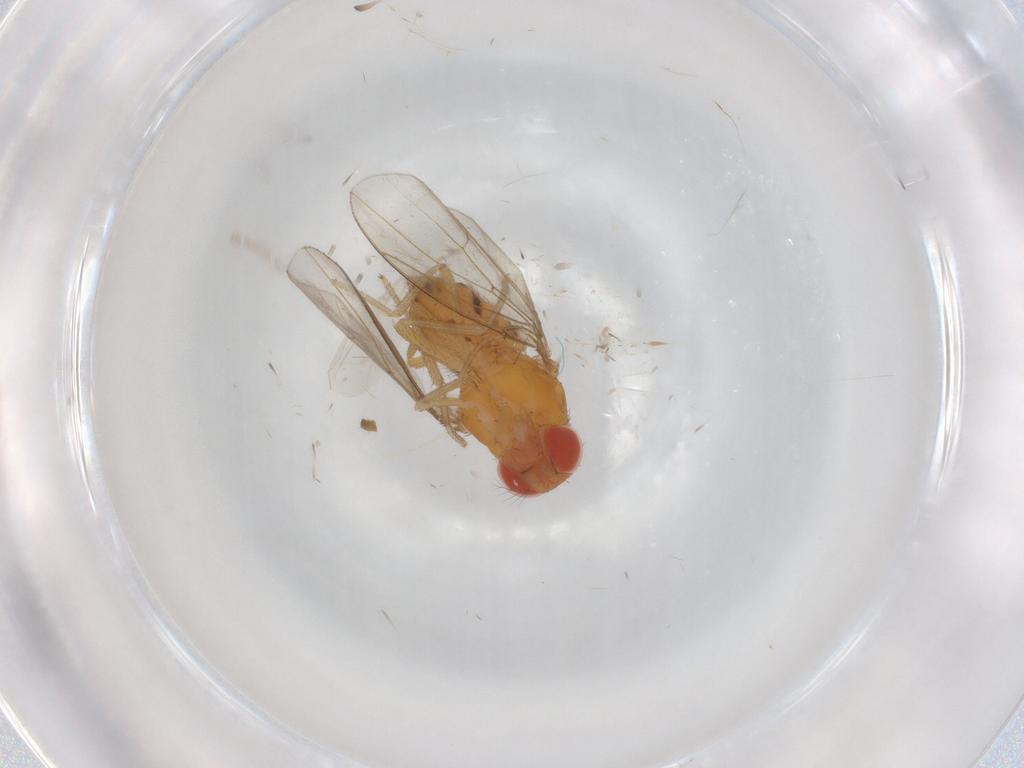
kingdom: Animalia
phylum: Arthropoda
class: Insecta
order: Diptera
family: Drosophilidae
